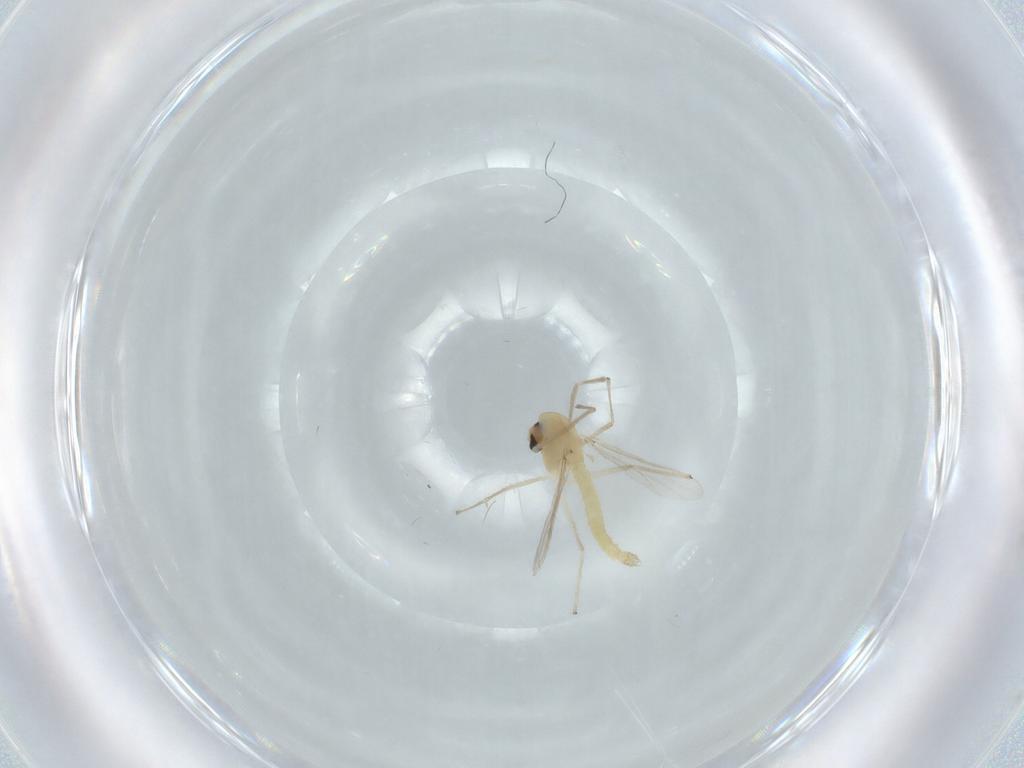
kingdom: Animalia
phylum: Arthropoda
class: Insecta
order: Diptera
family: Chironomidae
